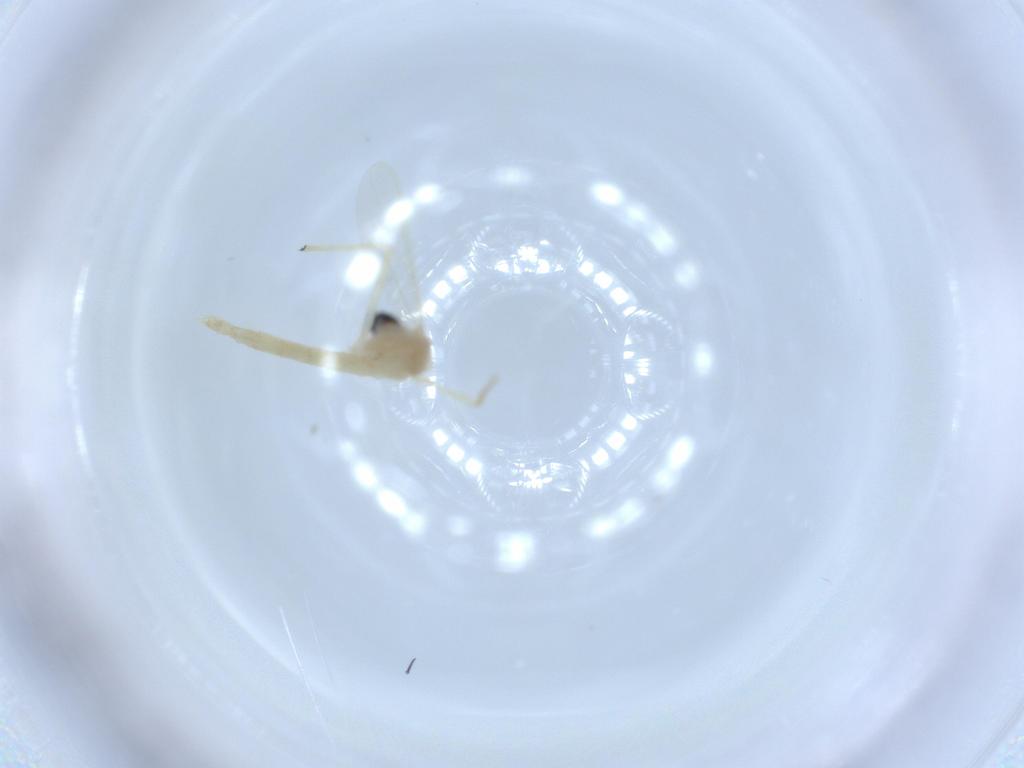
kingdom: Animalia
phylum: Arthropoda
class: Insecta
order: Diptera
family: Chironomidae
